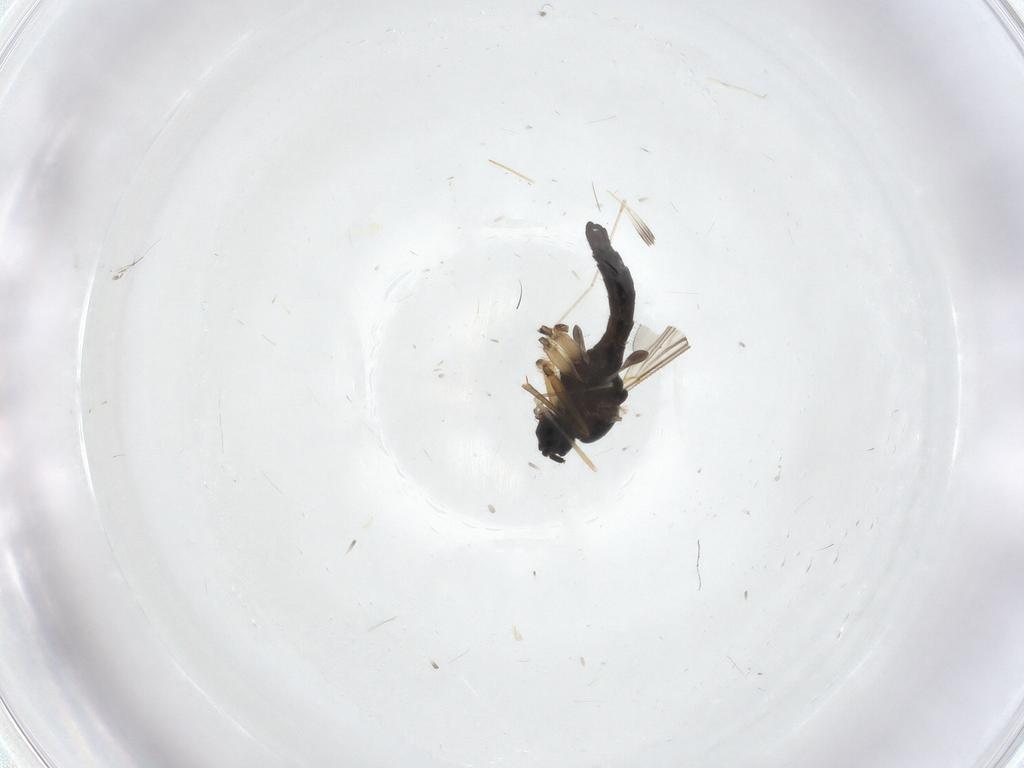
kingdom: Animalia
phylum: Arthropoda
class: Insecta
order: Diptera
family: Sciaridae
